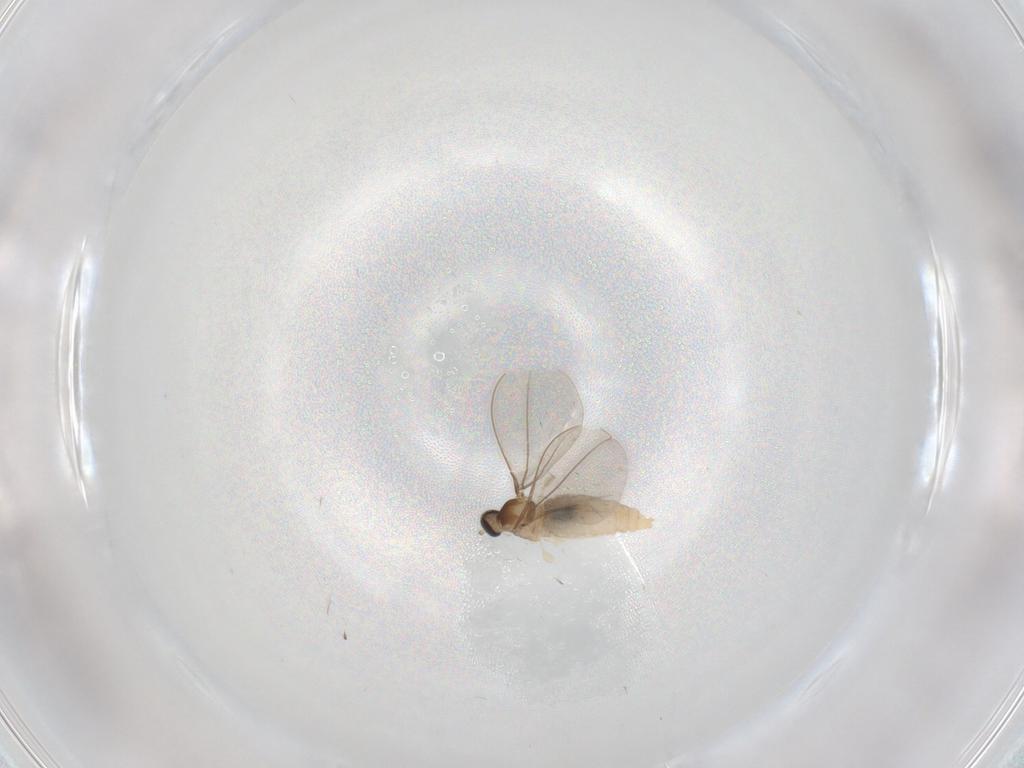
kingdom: Animalia
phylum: Arthropoda
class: Insecta
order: Diptera
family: Cecidomyiidae
